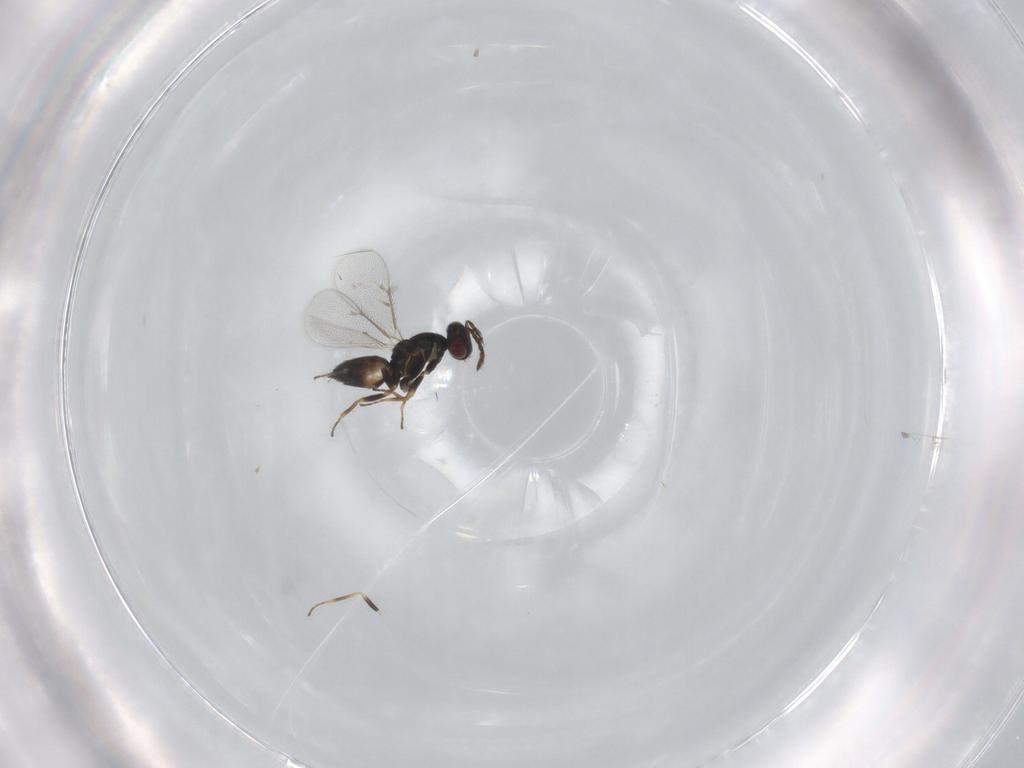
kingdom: Animalia
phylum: Arthropoda
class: Insecta
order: Hymenoptera
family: Eulophidae
